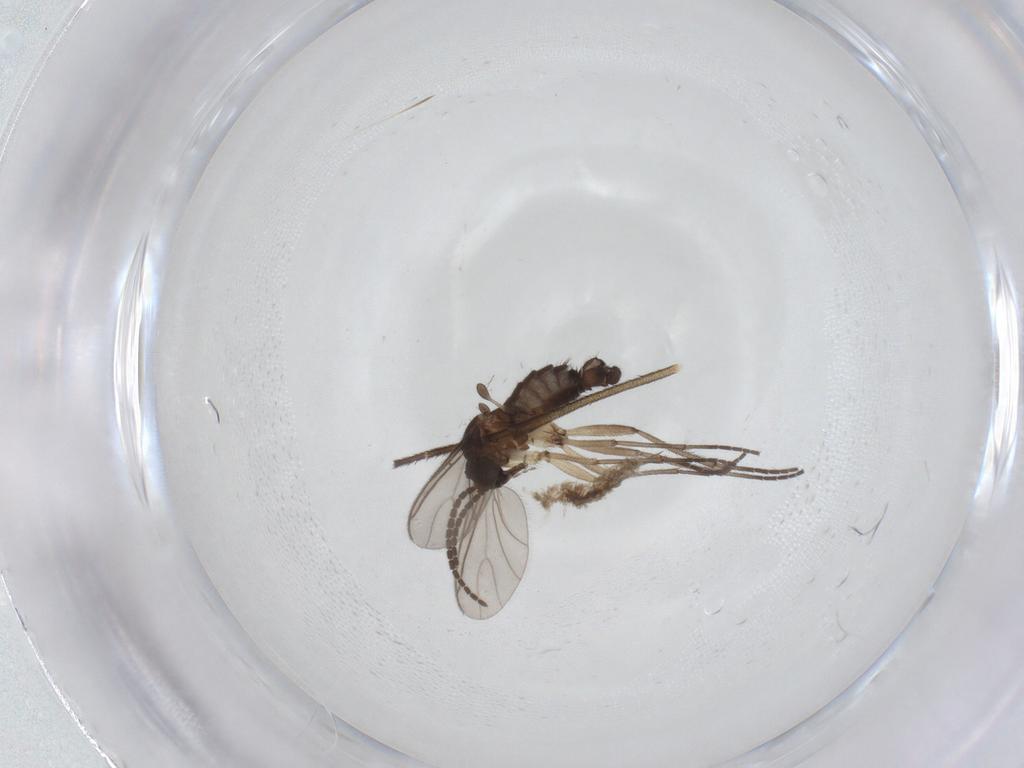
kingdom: Animalia
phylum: Arthropoda
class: Insecta
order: Diptera
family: Sciaridae
